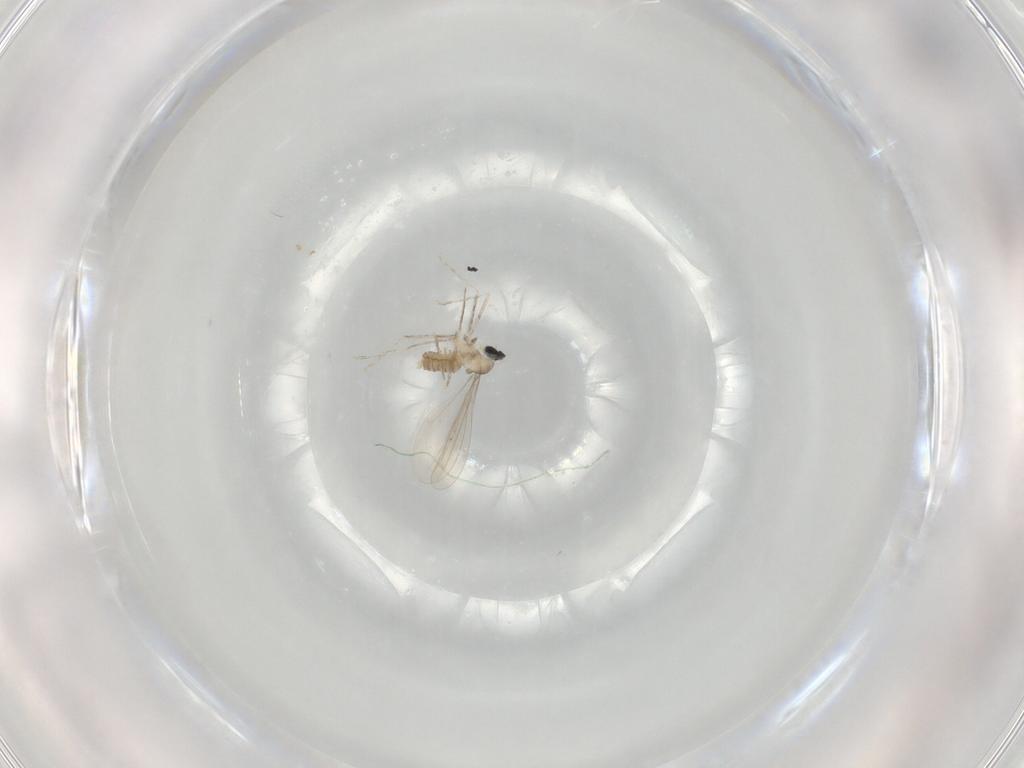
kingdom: Animalia
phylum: Arthropoda
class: Insecta
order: Diptera
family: Cecidomyiidae
